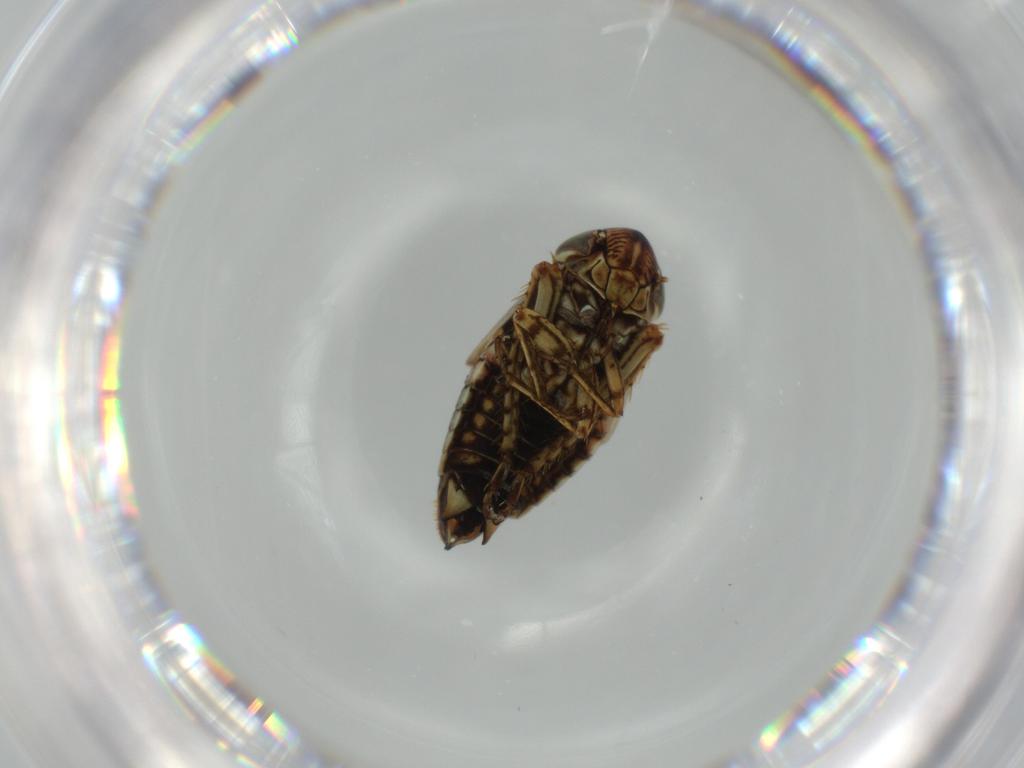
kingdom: Animalia
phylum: Arthropoda
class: Insecta
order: Hemiptera
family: Cicadellidae
